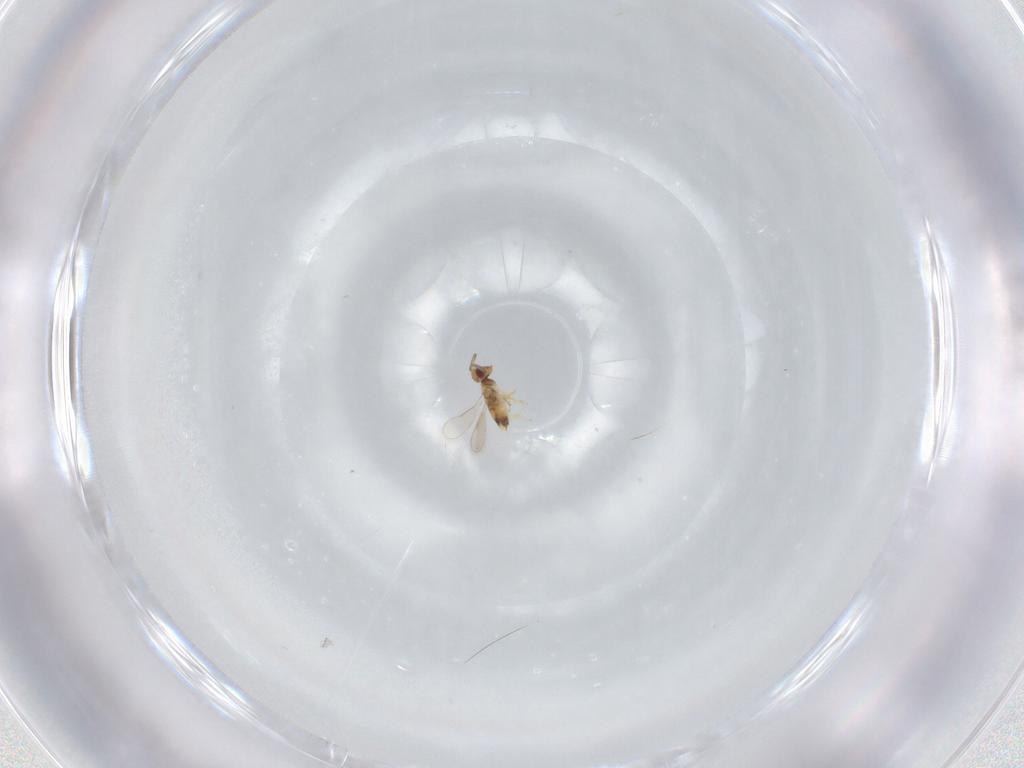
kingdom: Animalia
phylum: Arthropoda
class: Insecta
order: Hymenoptera
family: Aphelinidae
